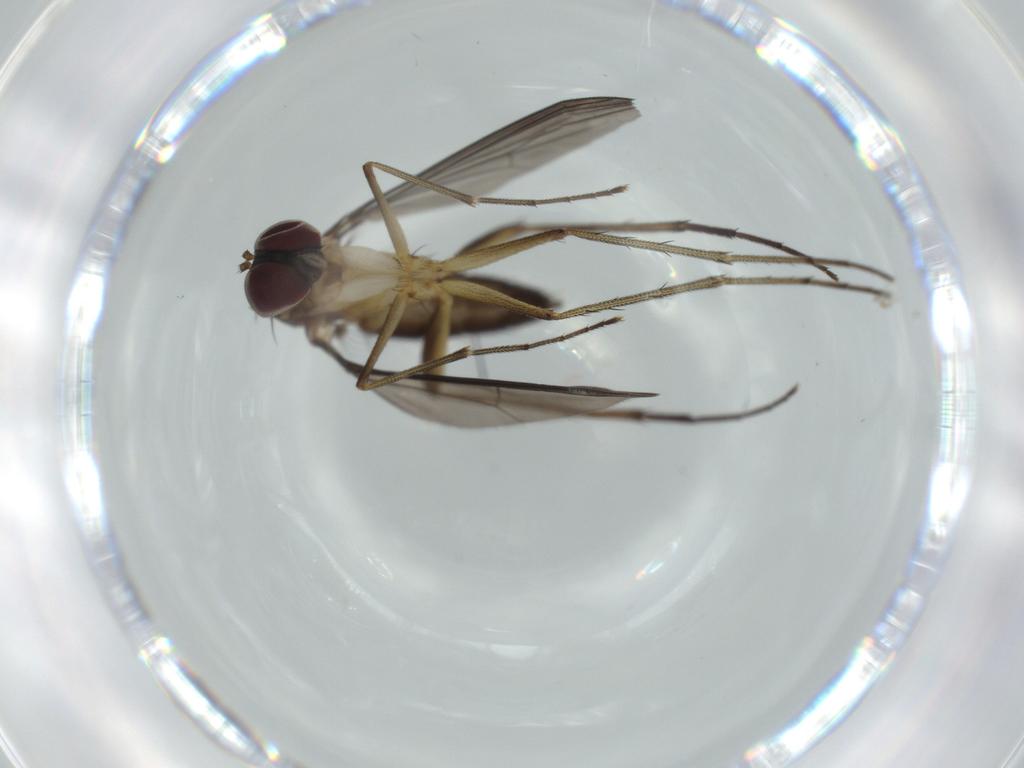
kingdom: Animalia
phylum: Arthropoda
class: Insecta
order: Diptera
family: Dolichopodidae
